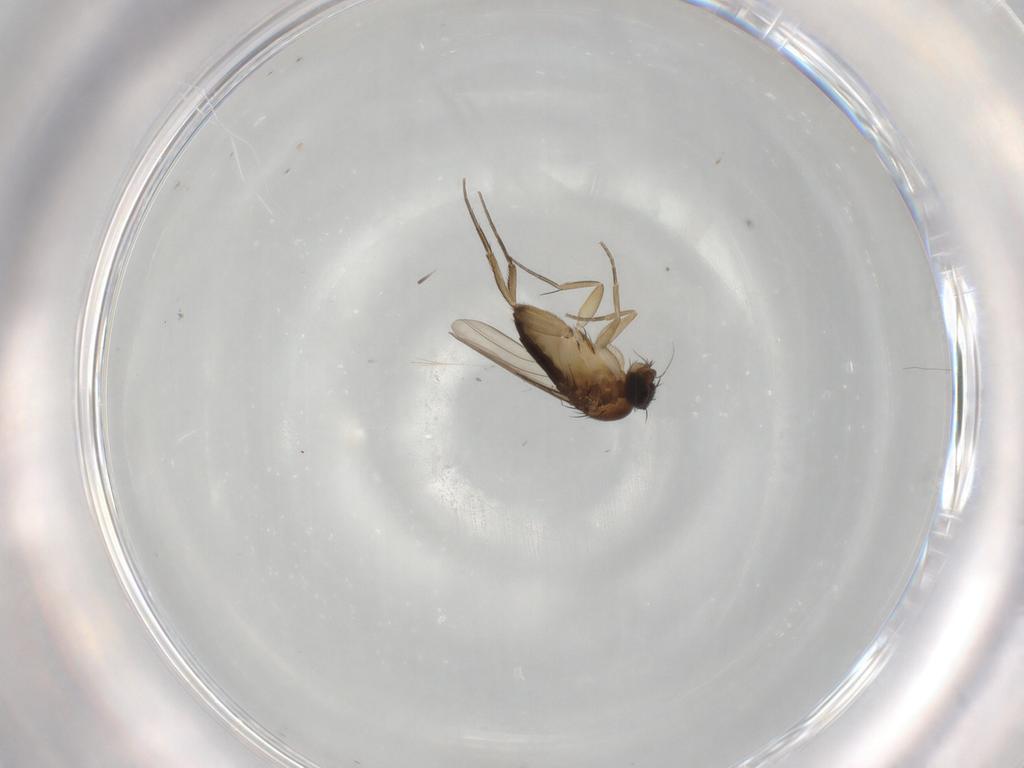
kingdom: Animalia
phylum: Arthropoda
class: Insecta
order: Diptera
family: Phoridae
